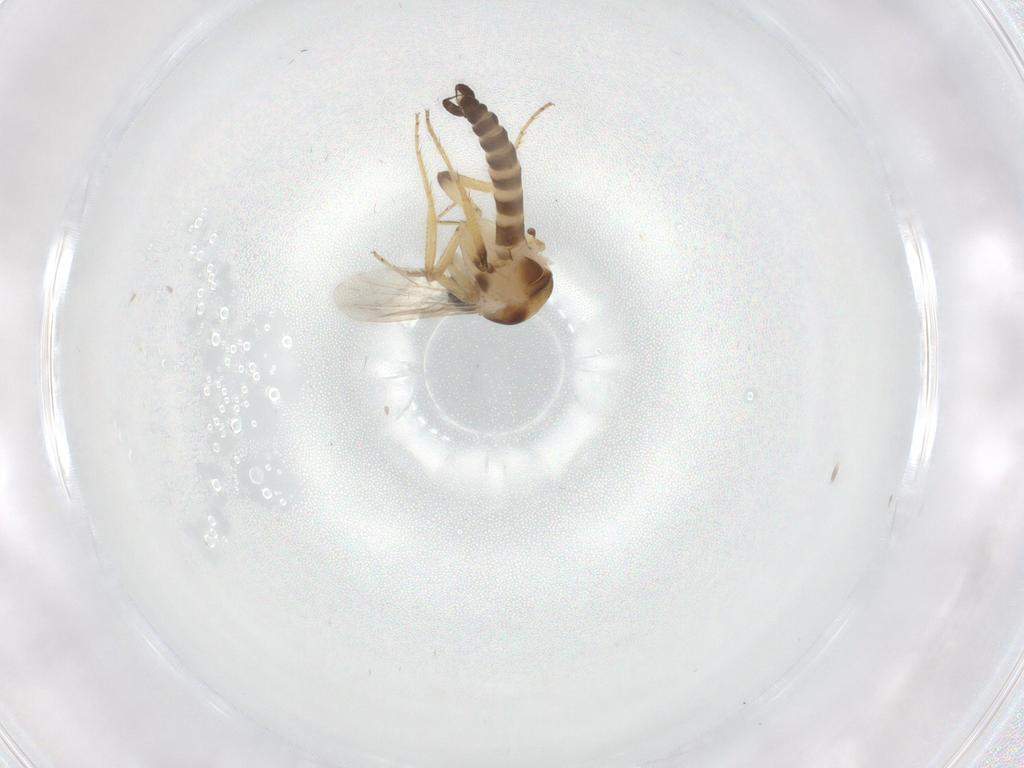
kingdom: Animalia
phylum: Arthropoda
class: Insecta
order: Diptera
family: Ceratopogonidae
